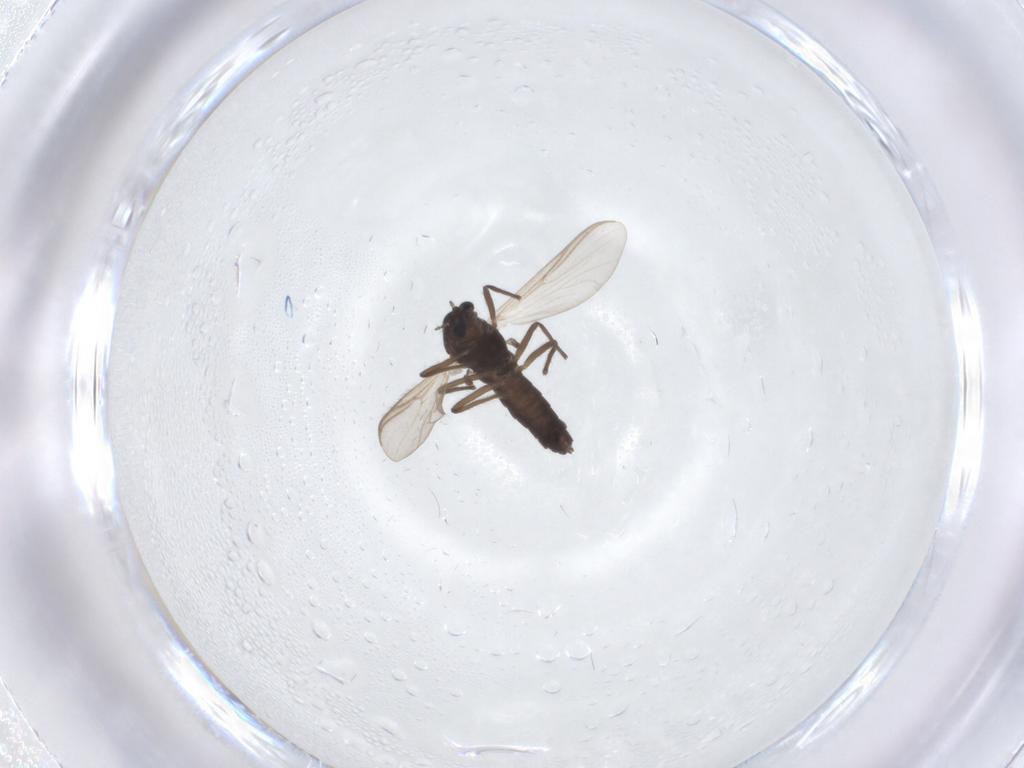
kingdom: Animalia
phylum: Arthropoda
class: Insecta
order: Diptera
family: Chironomidae
